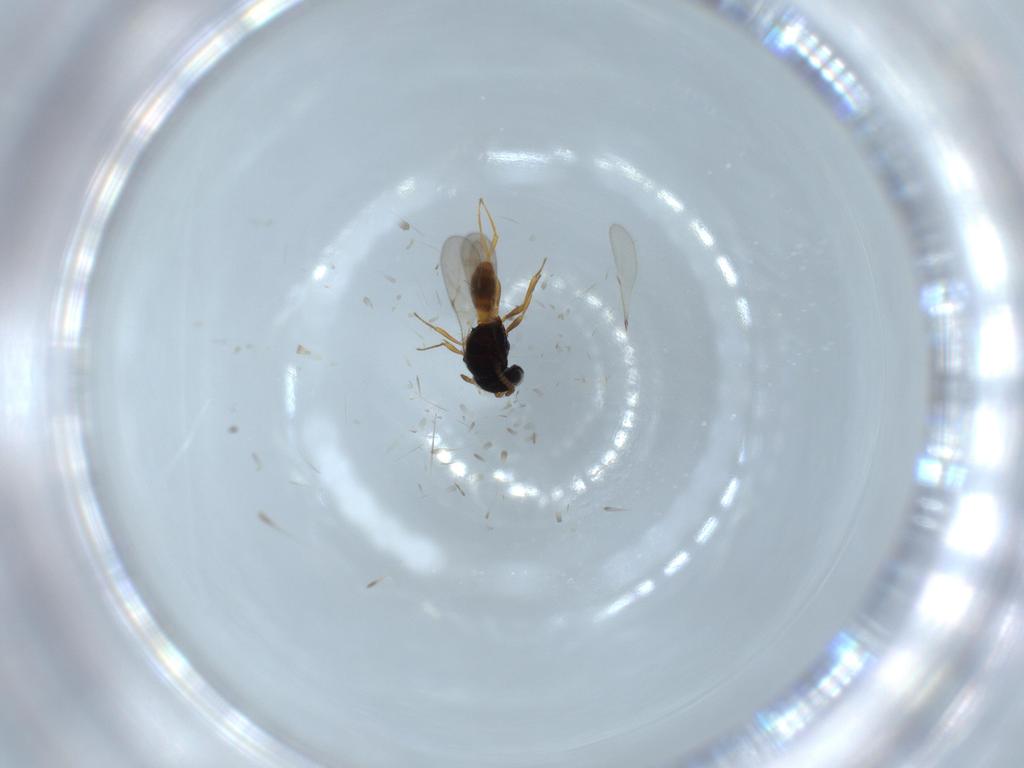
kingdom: Animalia
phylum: Arthropoda
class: Insecta
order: Hymenoptera
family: Scelionidae
